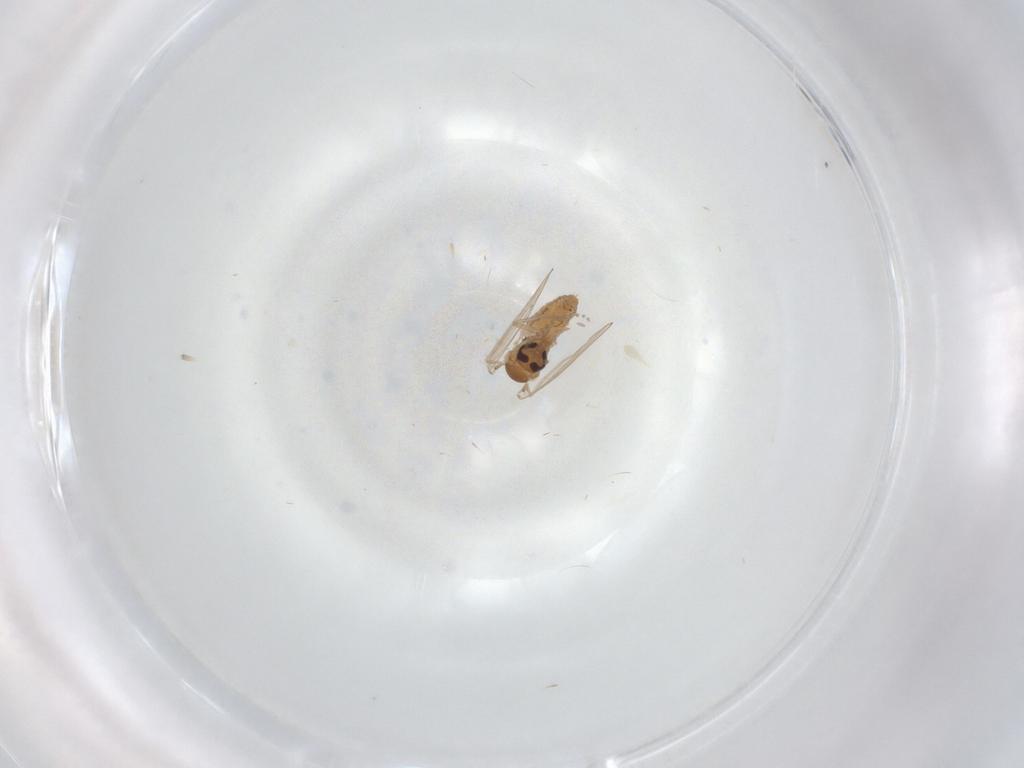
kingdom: Animalia
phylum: Arthropoda
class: Insecta
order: Diptera
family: Psychodidae
